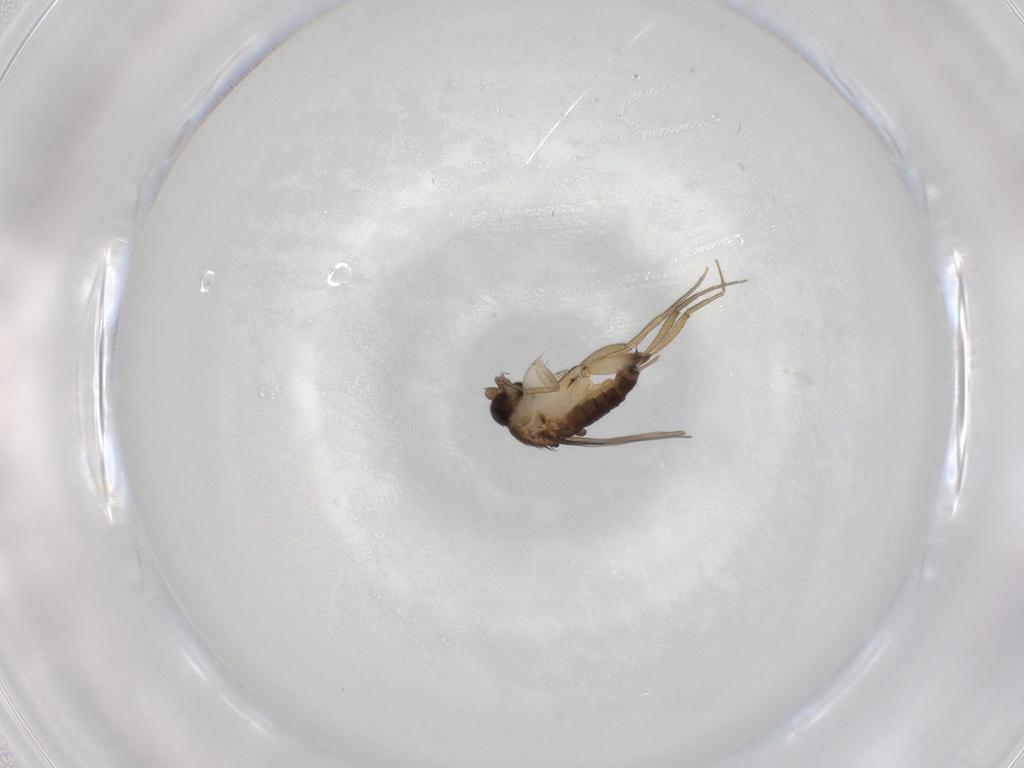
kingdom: Animalia
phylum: Arthropoda
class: Insecta
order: Diptera
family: Phoridae
